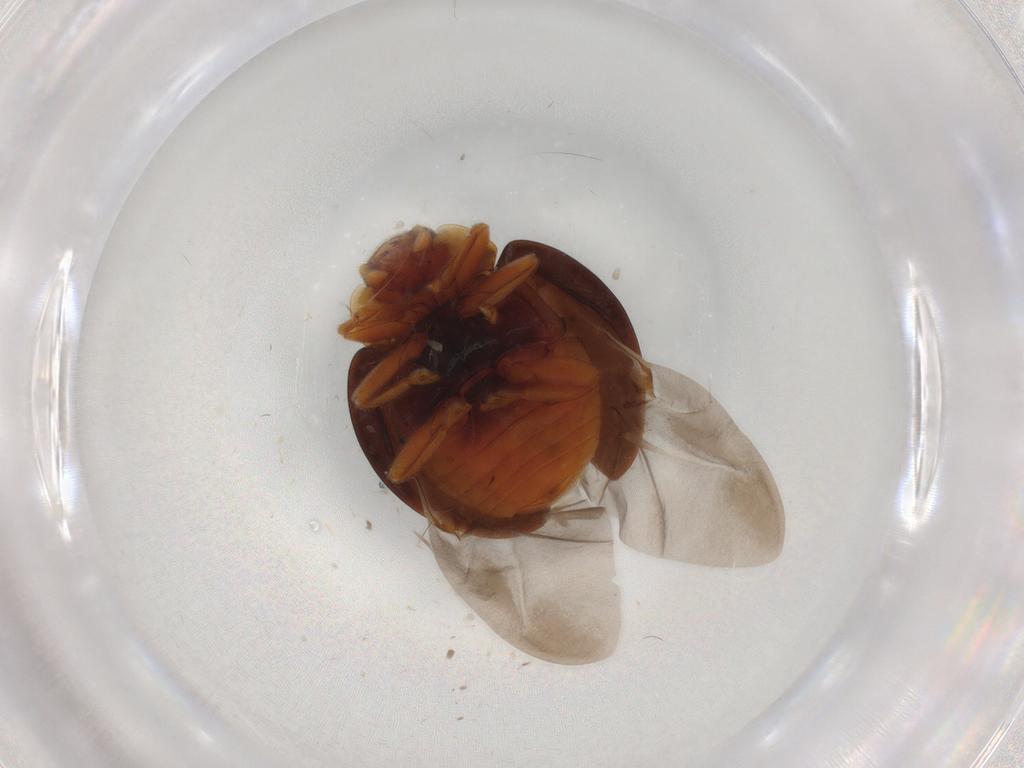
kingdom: Animalia
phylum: Arthropoda
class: Insecta
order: Coleoptera
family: Coccinellidae
